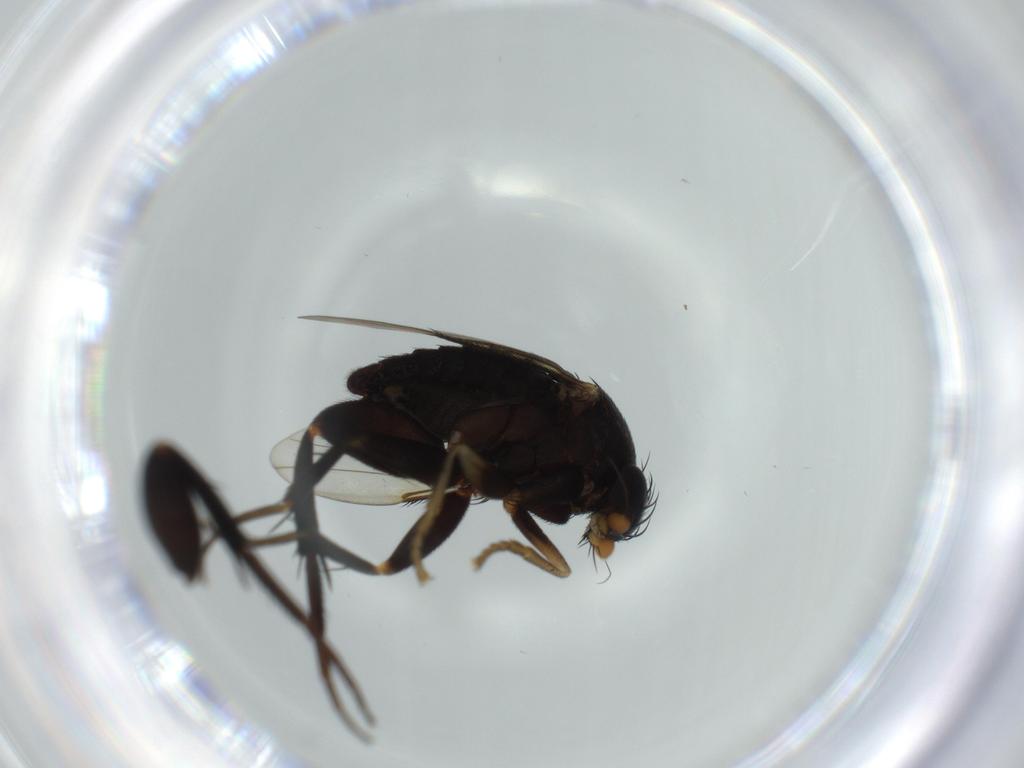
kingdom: Animalia
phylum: Arthropoda
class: Insecta
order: Diptera
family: Phoridae
